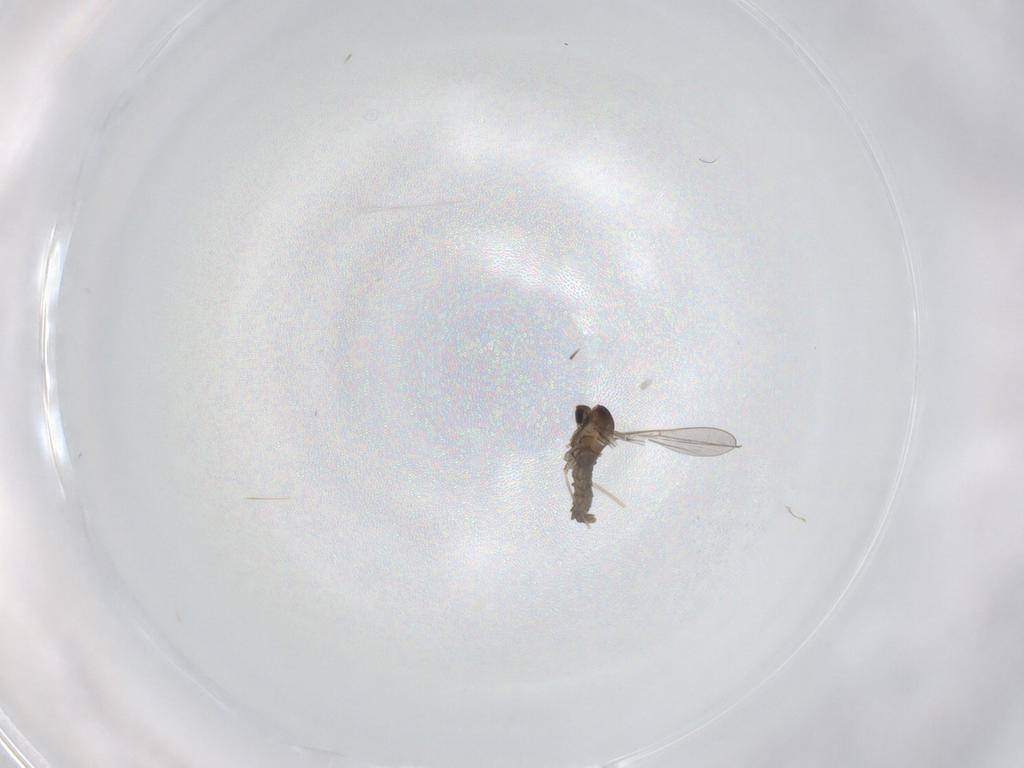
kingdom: Animalia
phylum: Arthropoda
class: Insecta
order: Diptera
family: Cecidomyiidae
